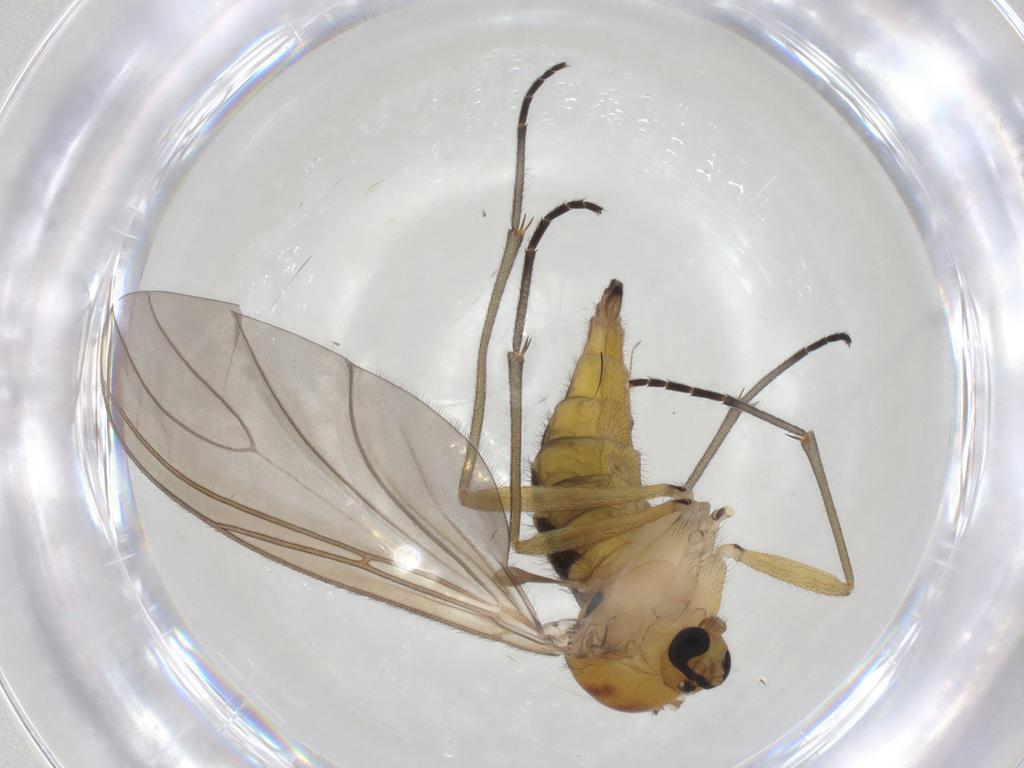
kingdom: Animalia
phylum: Arthropoda
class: Insecta
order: Diptera
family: Sciaridae
